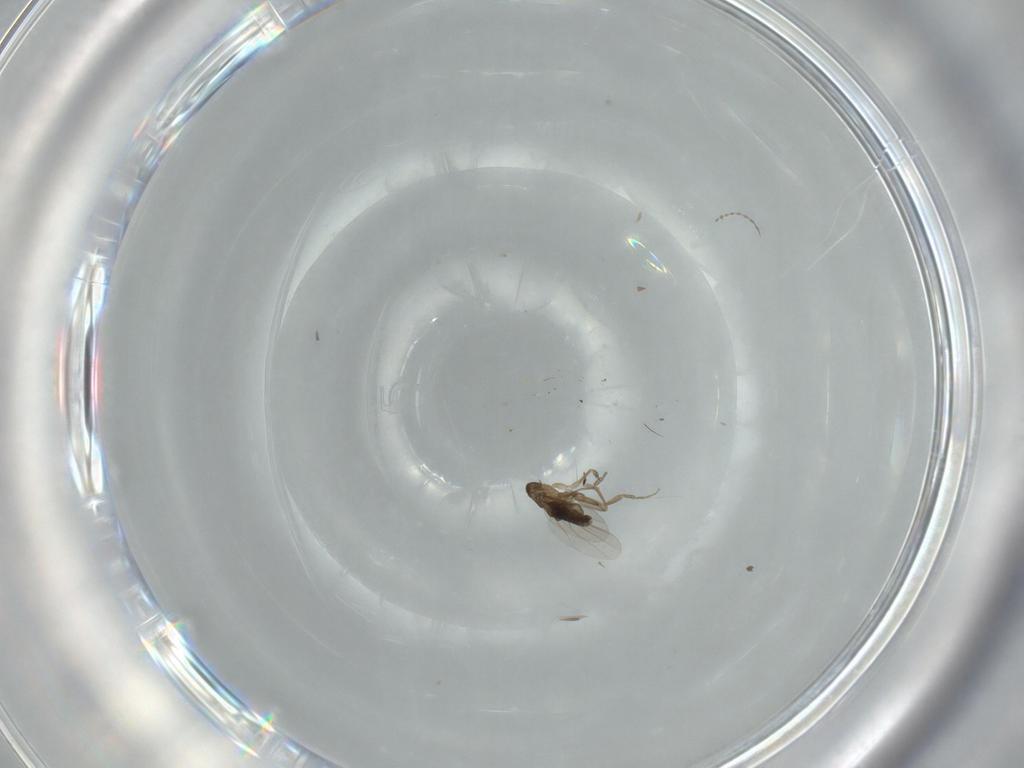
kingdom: Animalia
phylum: Arthropoda
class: Insecta
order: Diptera
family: Phoridae
